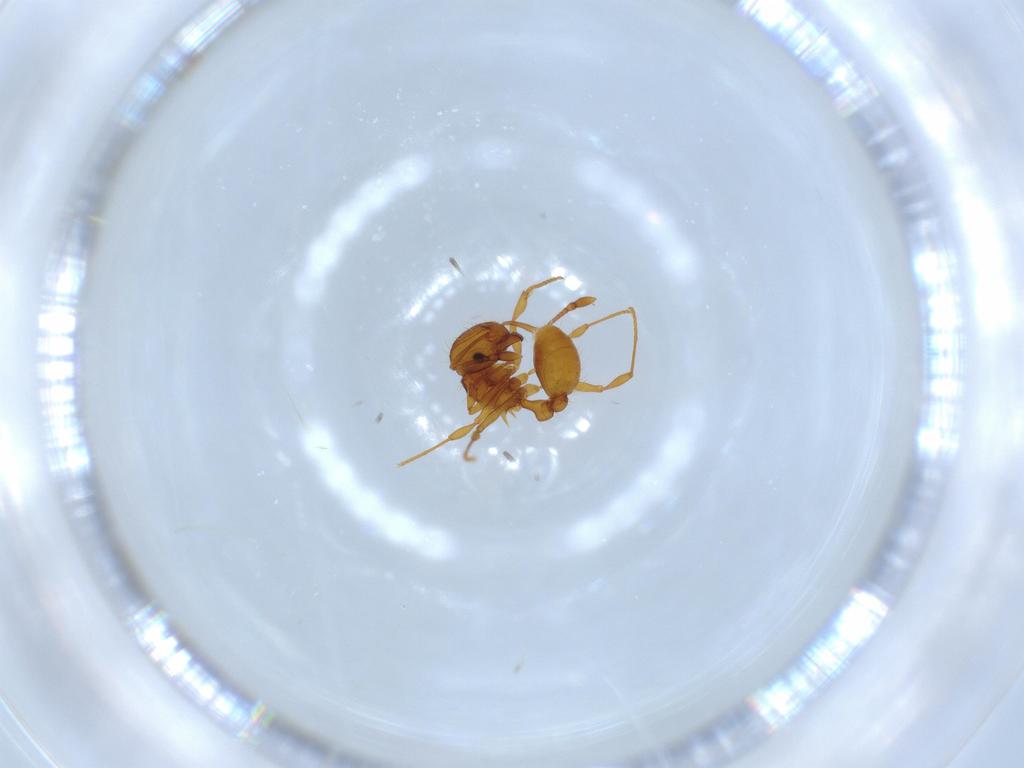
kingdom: Animalia
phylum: Arthropoda
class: Insecta
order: Hymenoptera
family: Formicidae
